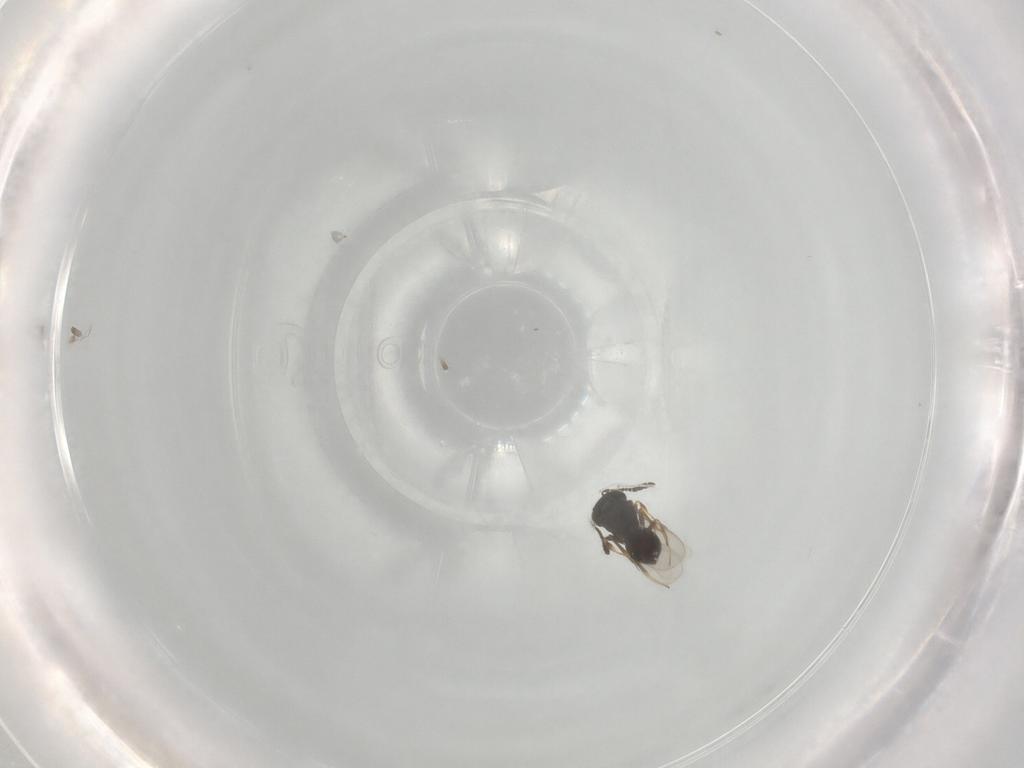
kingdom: Animalia
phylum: Arthropoda
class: Insecta
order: Hymenoptera
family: Scelionidae
